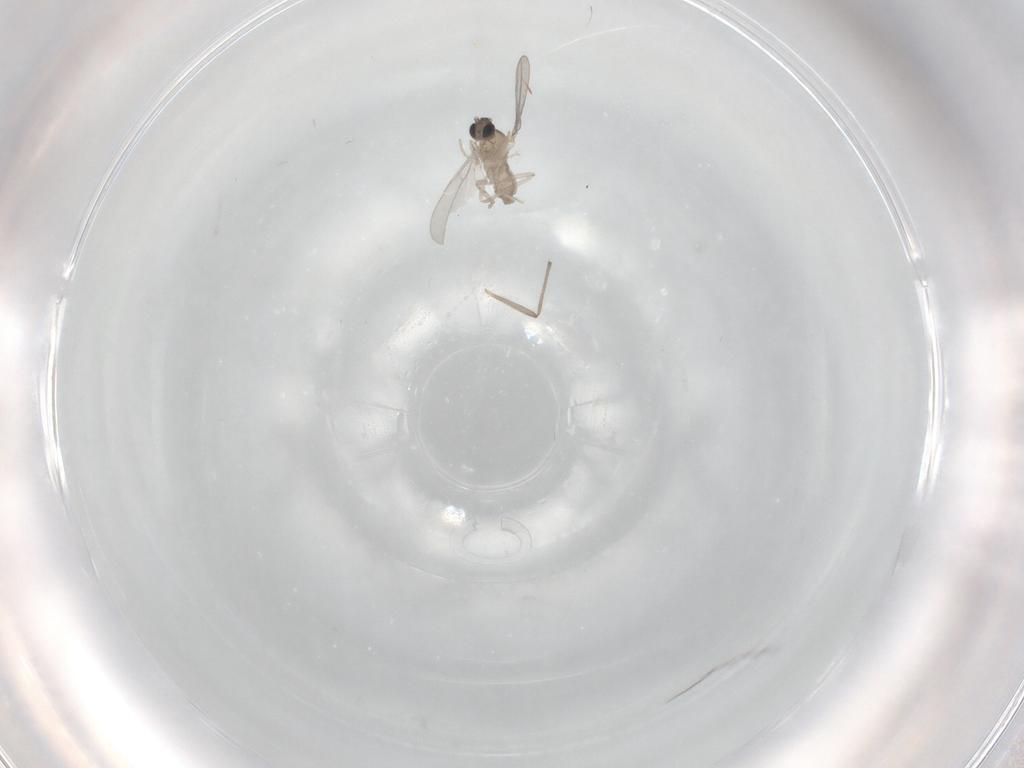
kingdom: Animalia
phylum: Arthropoda
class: Insecta
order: Diptera
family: Cecidomyiidae
